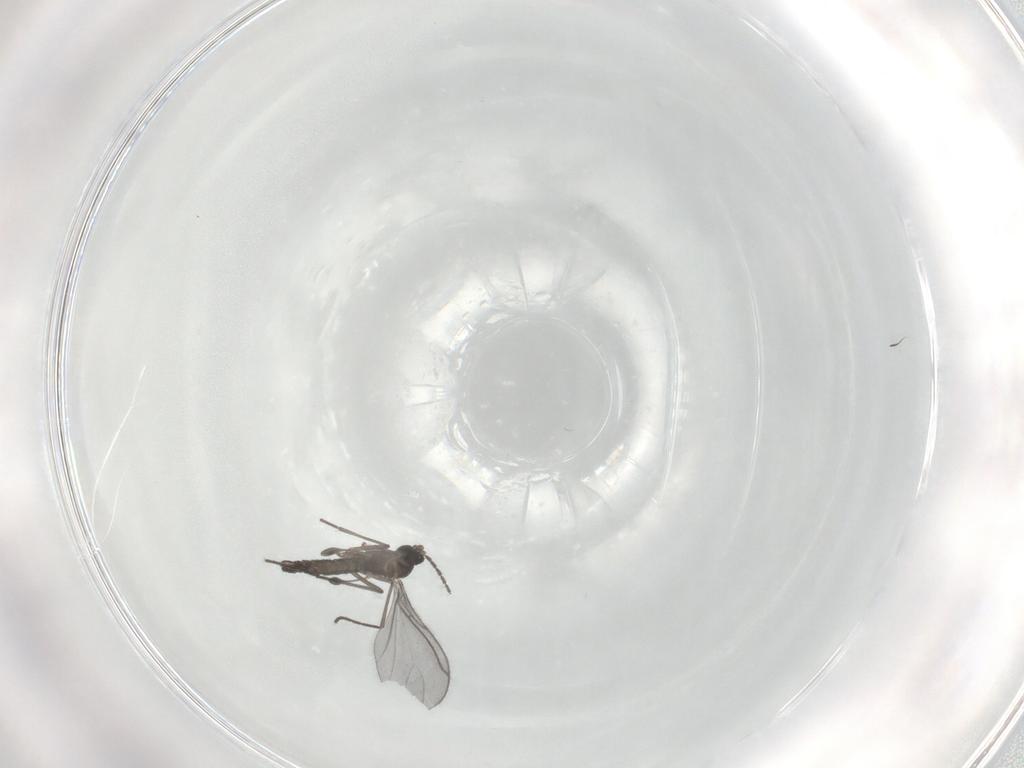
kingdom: Animalia
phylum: Arthropoda
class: Insecta
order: Diptera
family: Sciaridae
